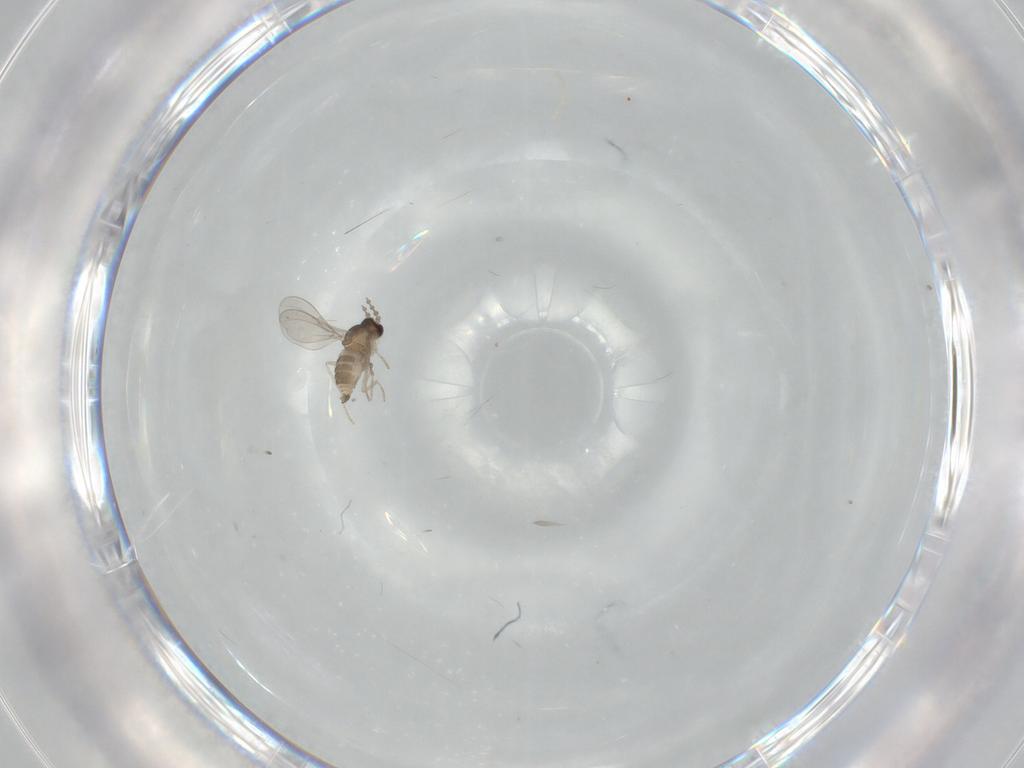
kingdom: Animalia
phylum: Arthropoda
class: Insecta
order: Diptera
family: Cecidomyiidae
